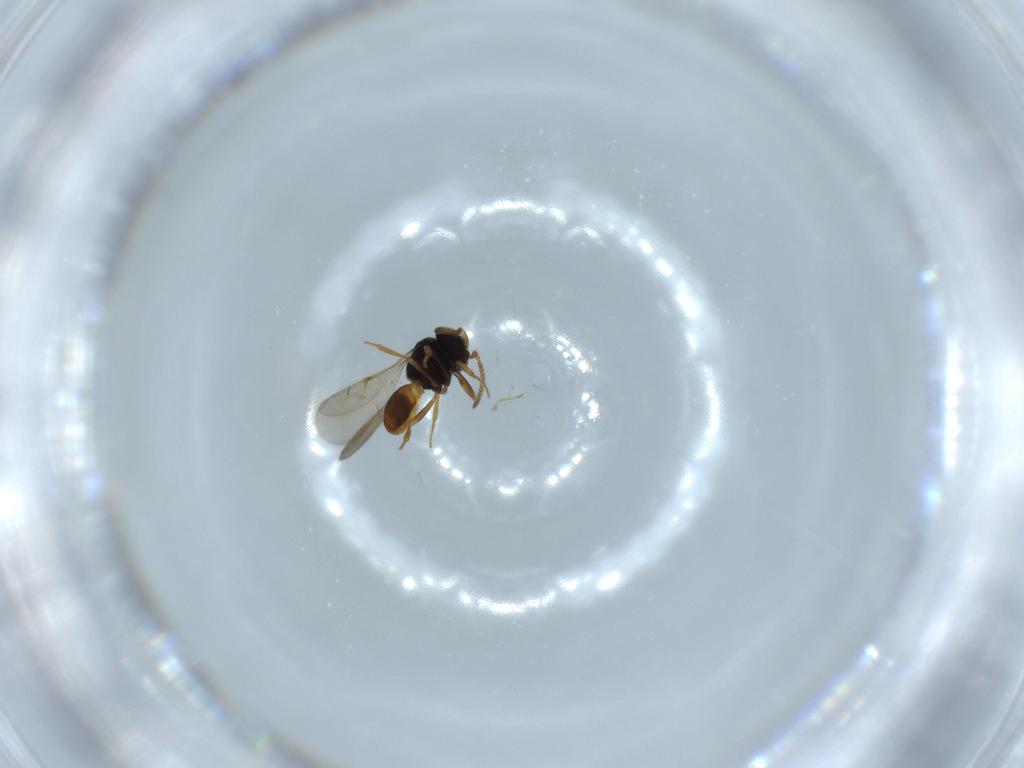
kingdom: Animalia
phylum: Arthropoda
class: Insecta
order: Hymenoptera
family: Scelionidae
